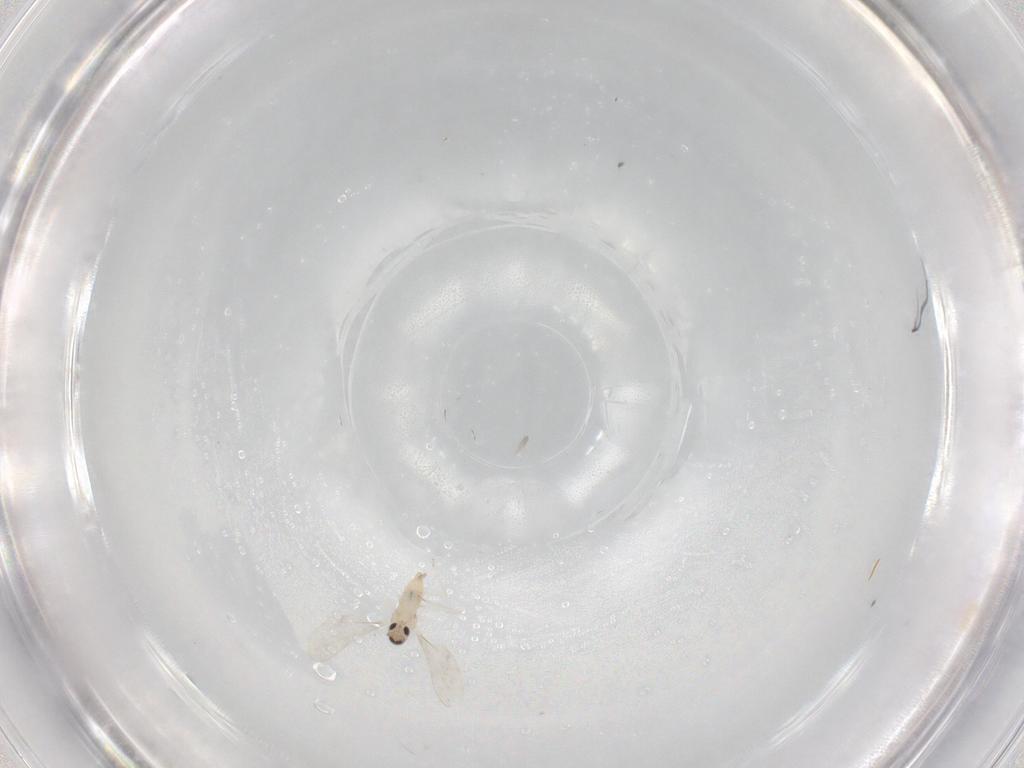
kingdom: Animalia
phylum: Arthropoda
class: Insecta
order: Diptera
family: Cecidomyiidae
